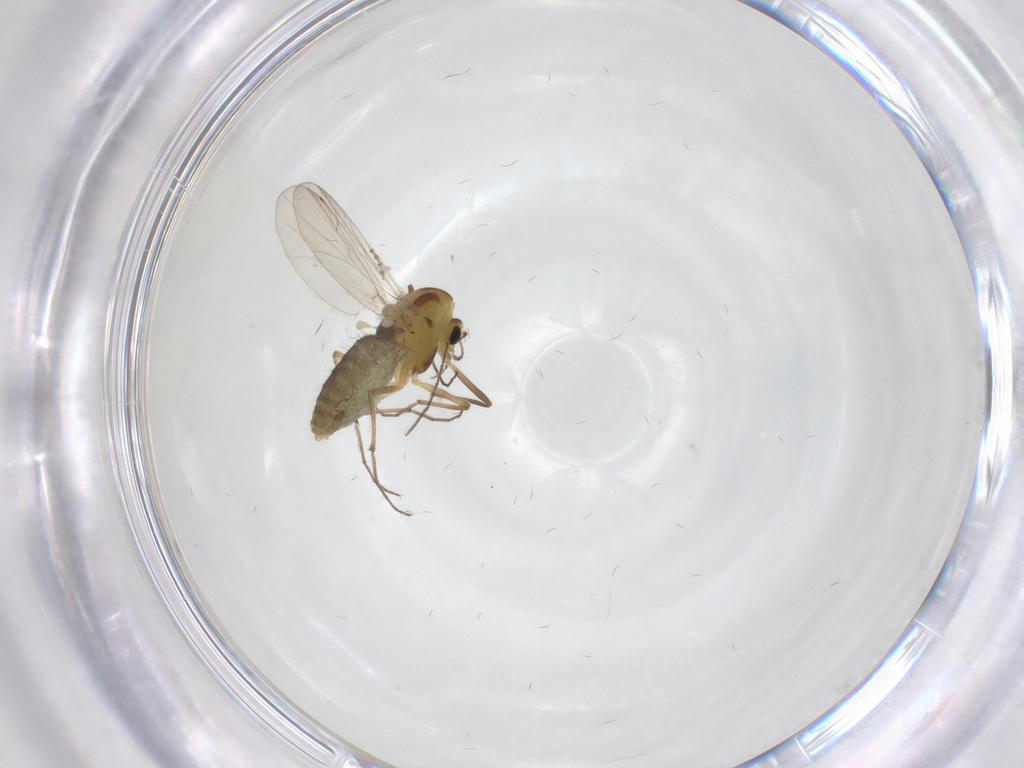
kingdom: Animalia
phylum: Arthropoda
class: Insecta
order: Diptera
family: Chironomidae
